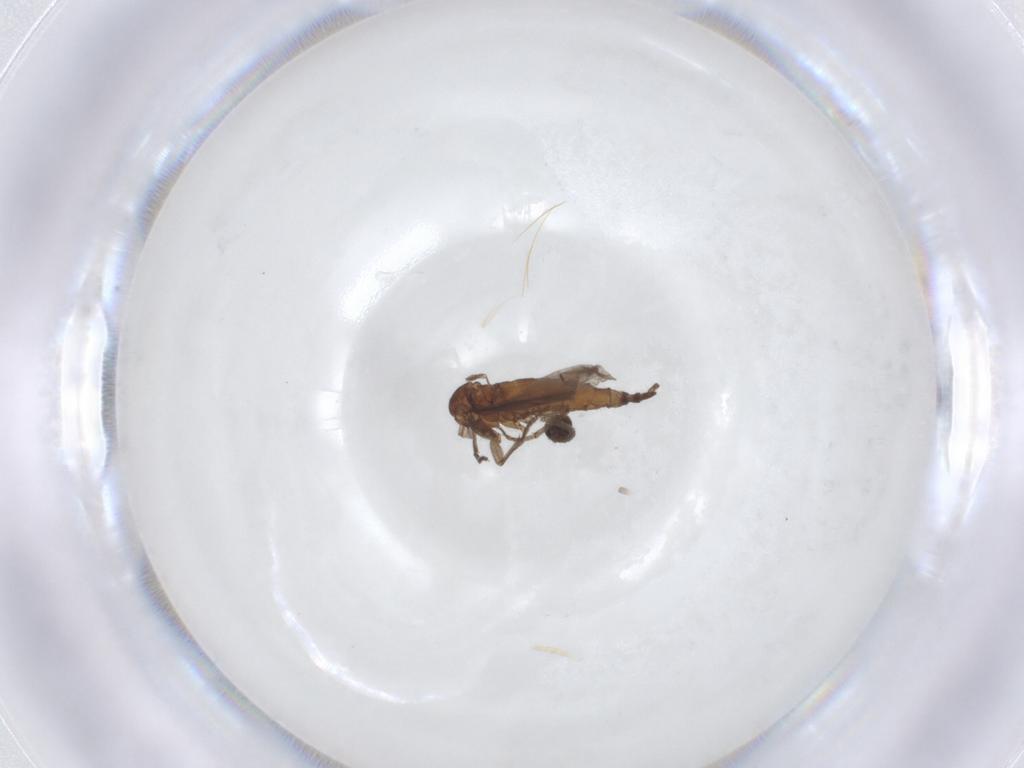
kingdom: Animalia
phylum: Arthropoda
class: Insecta
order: Diptera
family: Sciaridae
